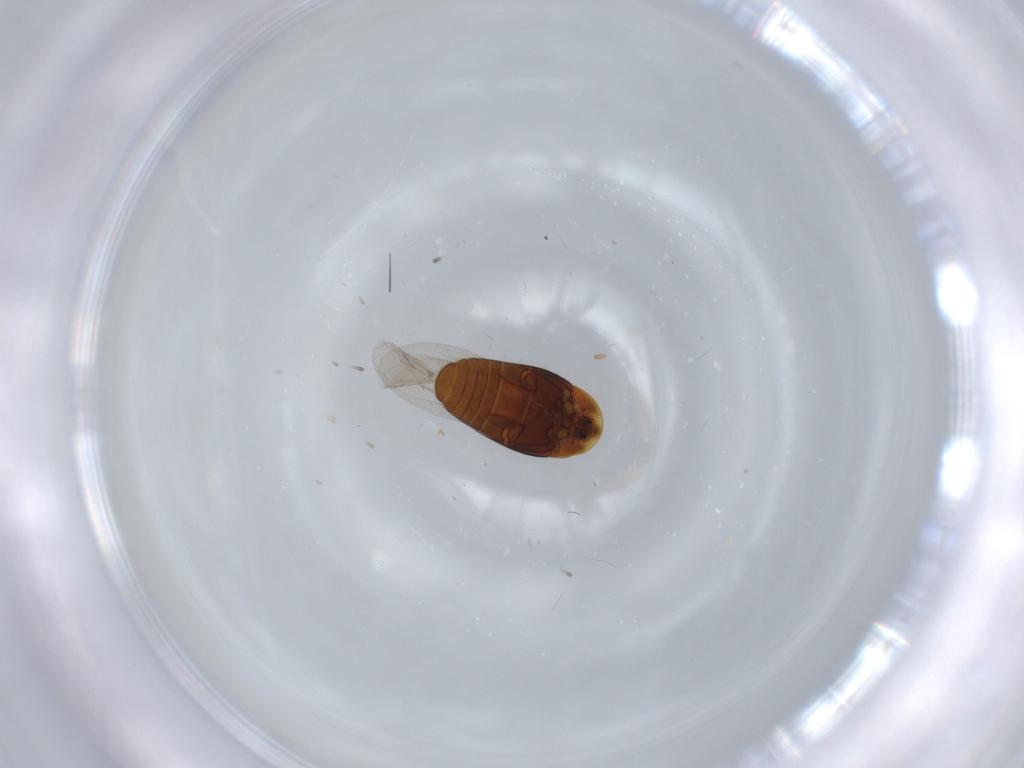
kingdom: Animalia
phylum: Arthropoda
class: Insecta
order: Coleoptera
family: Corylophidae
